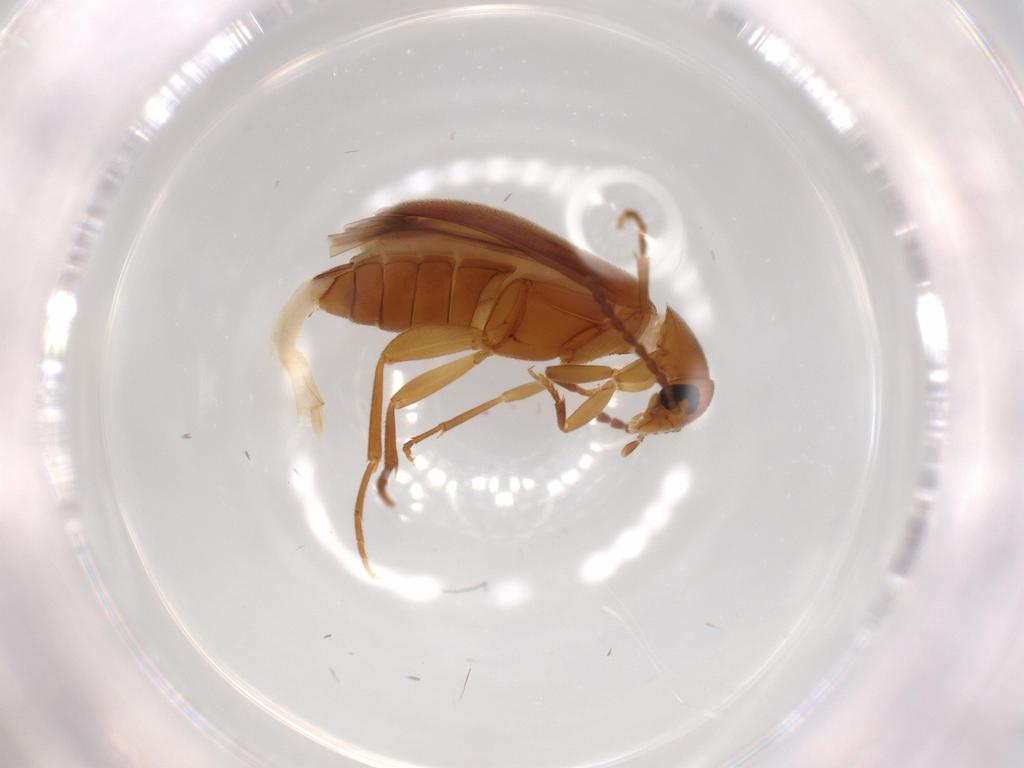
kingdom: Animalia
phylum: Arthropoda
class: Insecta
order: Coleoptera
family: Scraptiidae
